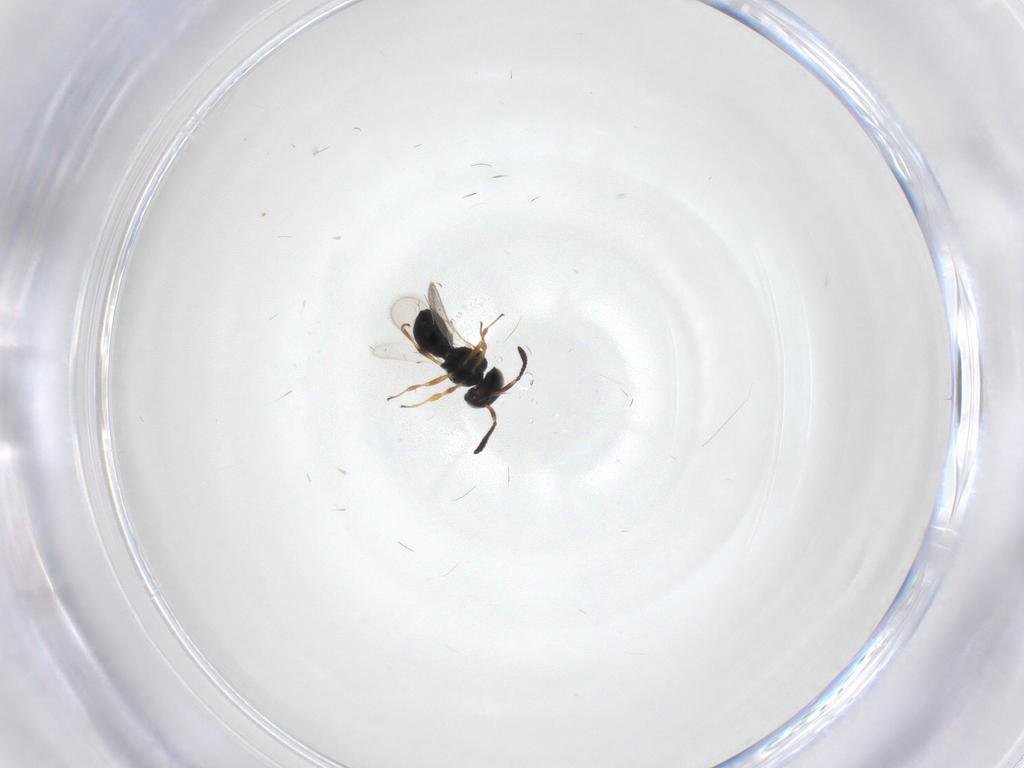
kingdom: Animalia
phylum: Arthropoda
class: Insecta
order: Hymenoptera
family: Scelionidae
